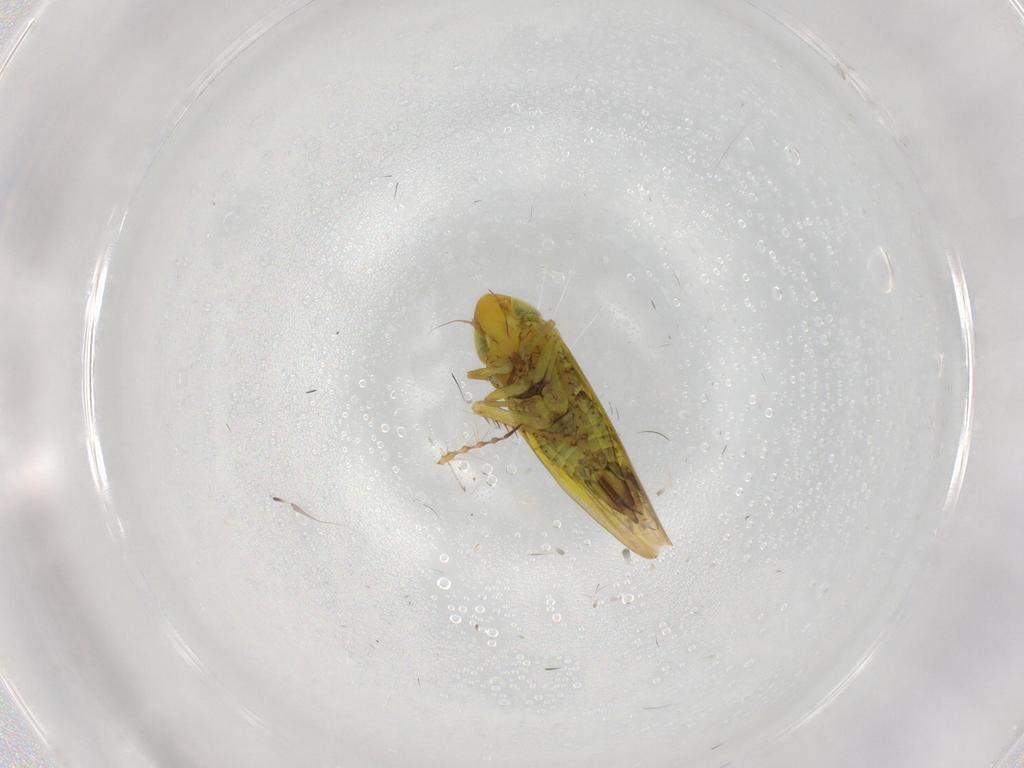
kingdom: Animalia
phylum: Arthropoda
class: Insecta
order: Hemiptera
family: Cicadellidae
